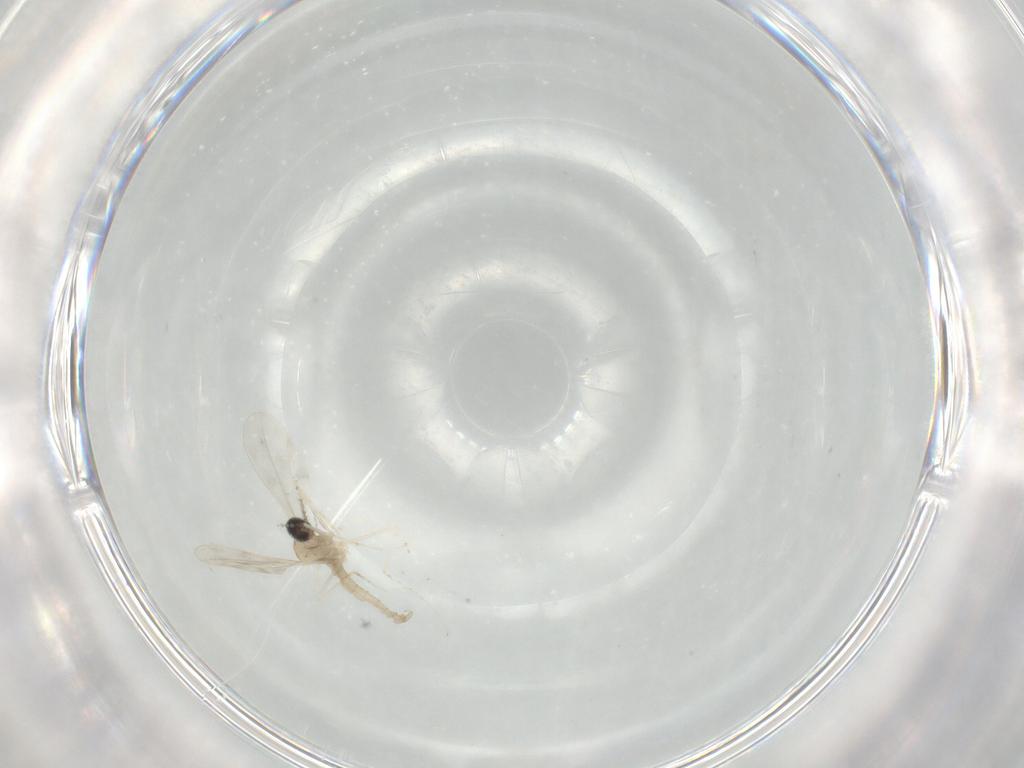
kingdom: Animalia
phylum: Arthropoda
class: Insecta
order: Diptera
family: Cecidomyiidae
